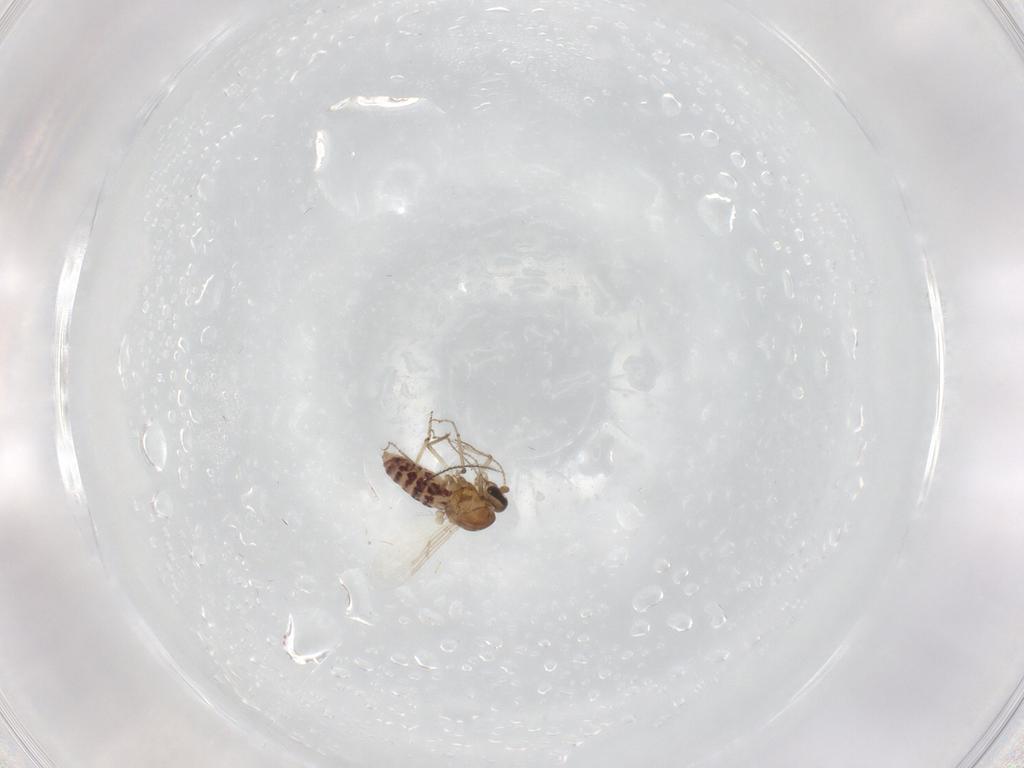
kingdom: Animalia
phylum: Arthropoda
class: Insecta
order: Diptera
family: Ceratopogonidae
